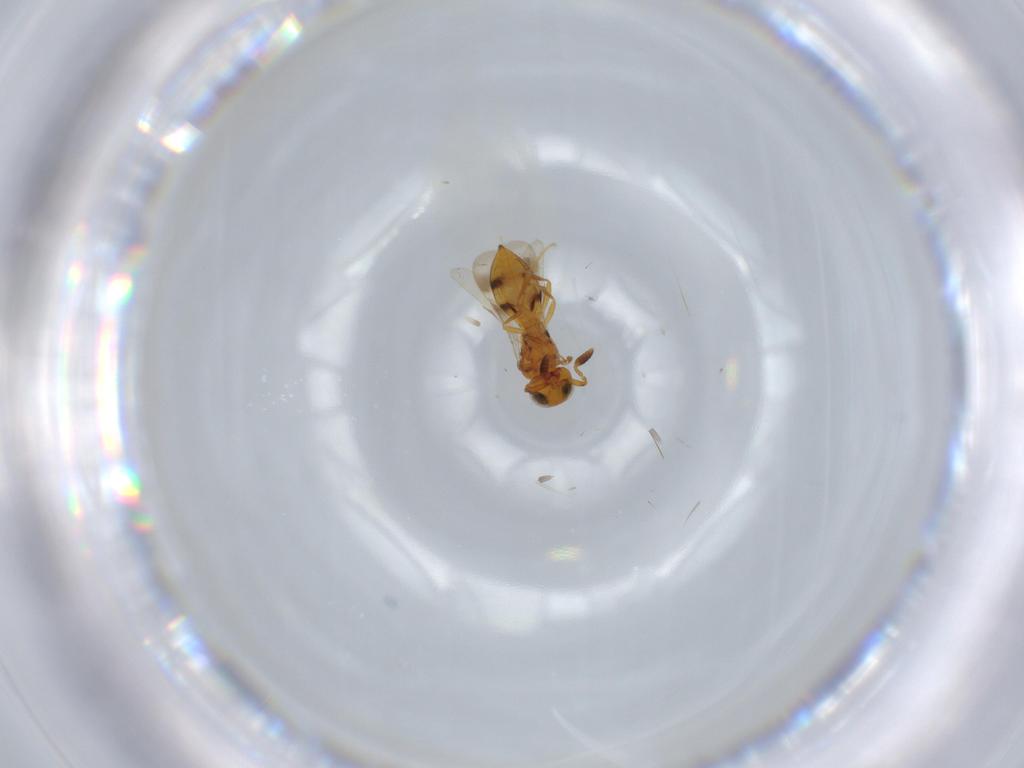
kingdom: Animalia
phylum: Arthropoda
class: Insecta
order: Hymenoptera
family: Scelionidae
